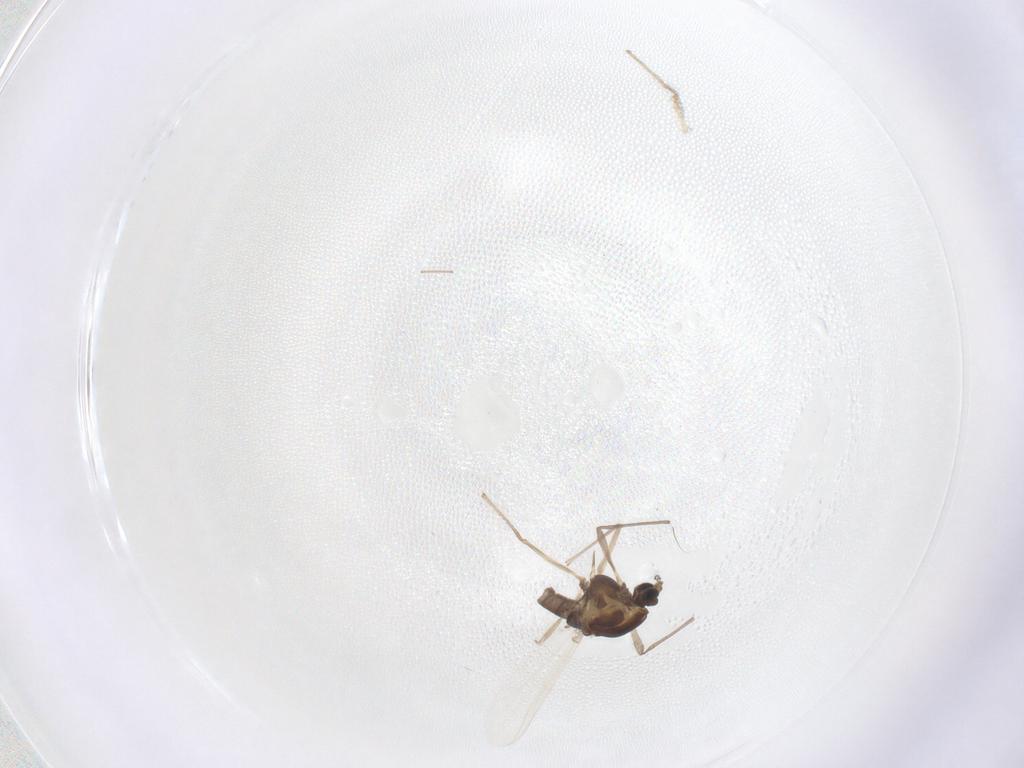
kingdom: Animalia
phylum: Arthropoda
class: Insecta
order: Diptera
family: Chironomidae
